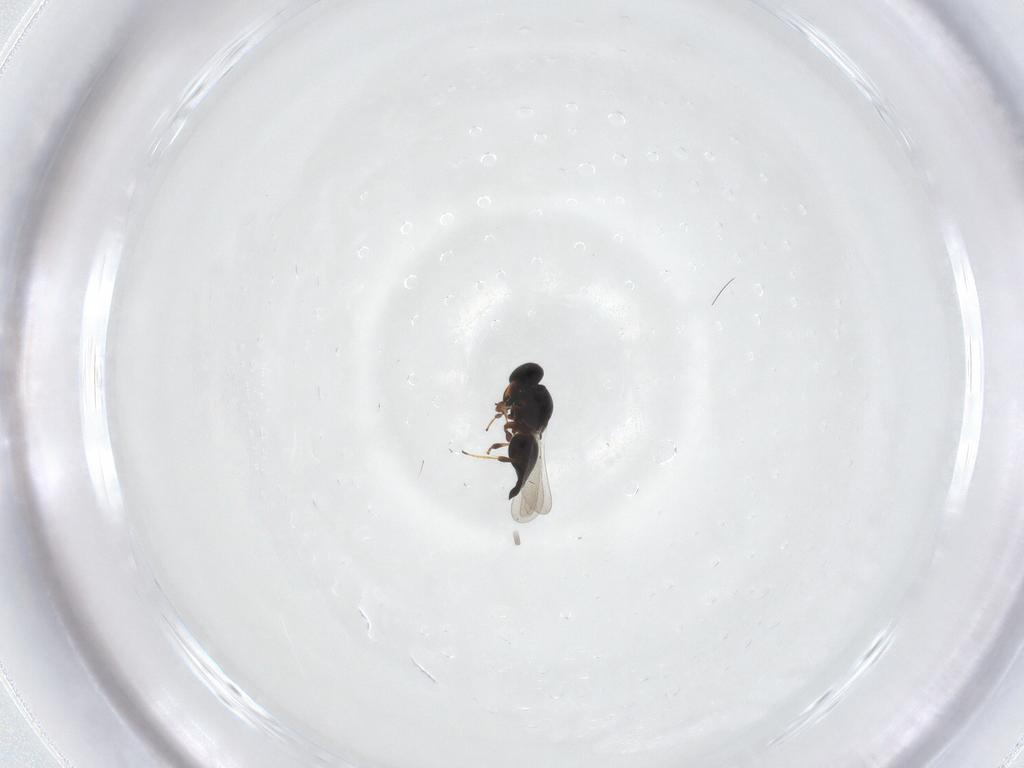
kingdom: Animalia
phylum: Arthropoda
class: Insecta
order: Hymenoptera
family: Platygastridae
